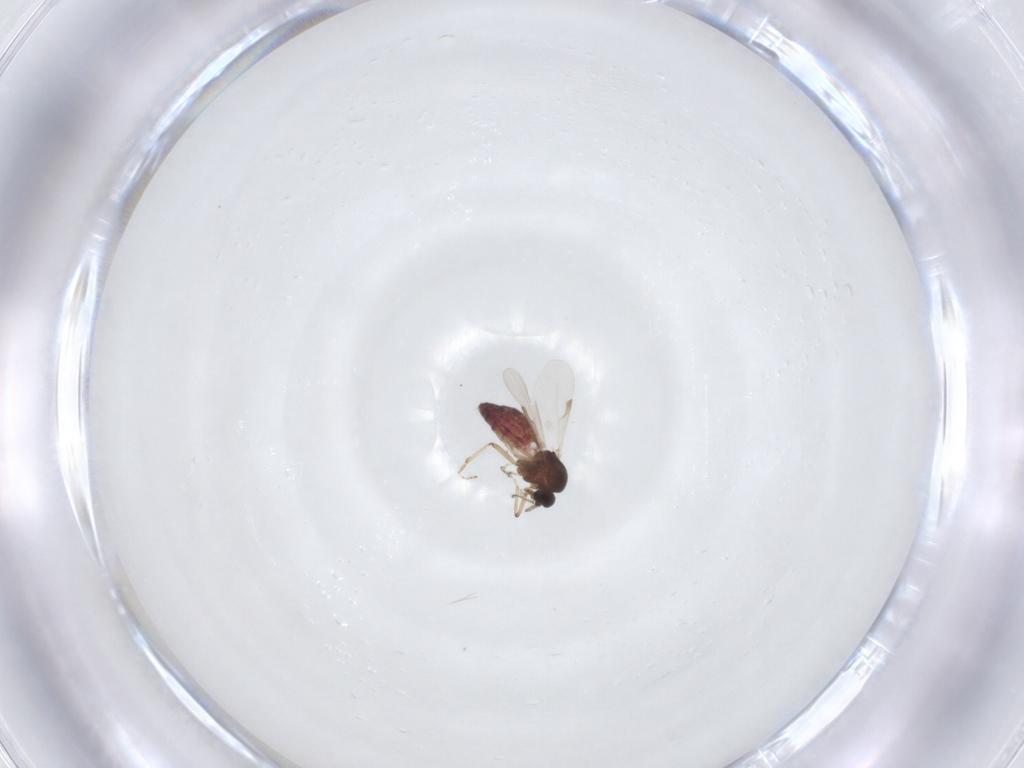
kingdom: Animalia
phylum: Arthropoda
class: Insecta
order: Diptera
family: Ceratopogonidae
